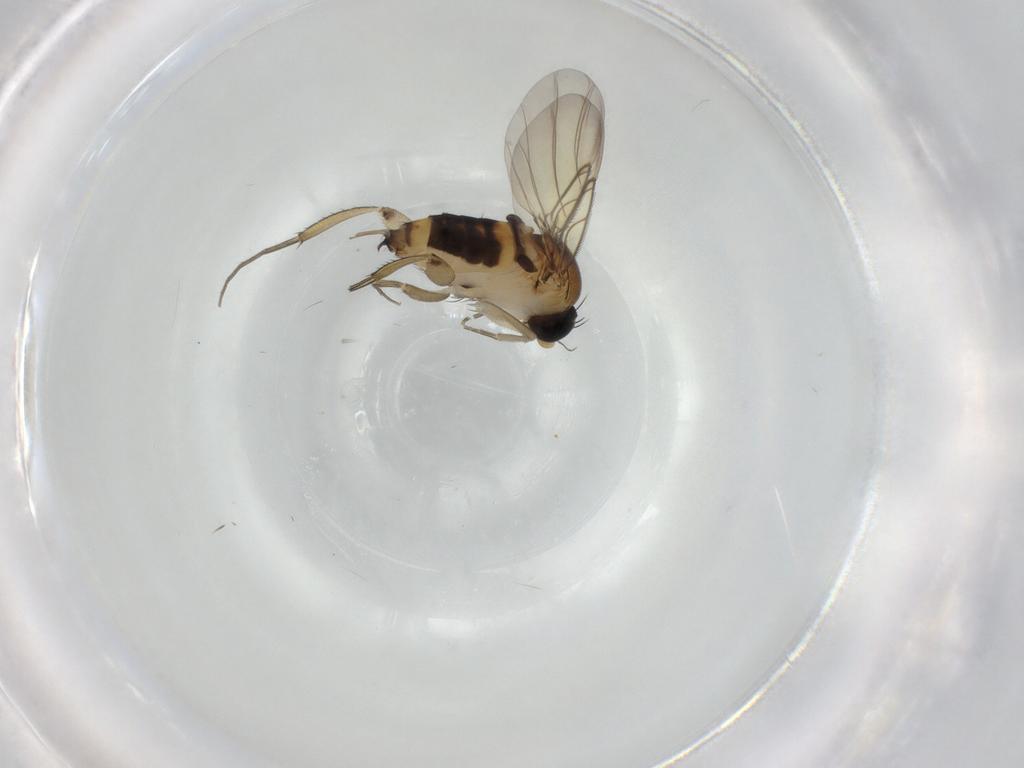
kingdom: Animalia
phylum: Arthropoda
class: Insecta
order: Diptera
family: Phoridae
